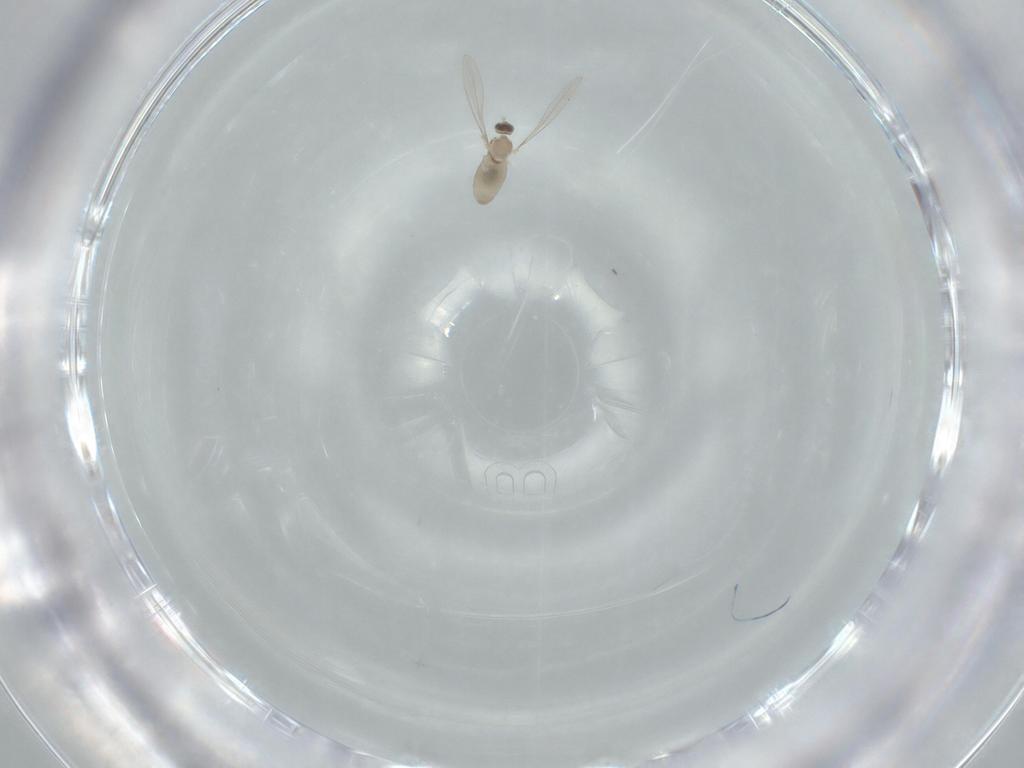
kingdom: Animalia
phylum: Arthropoda
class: Insecta
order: Diptera
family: Cecidomyiidae
